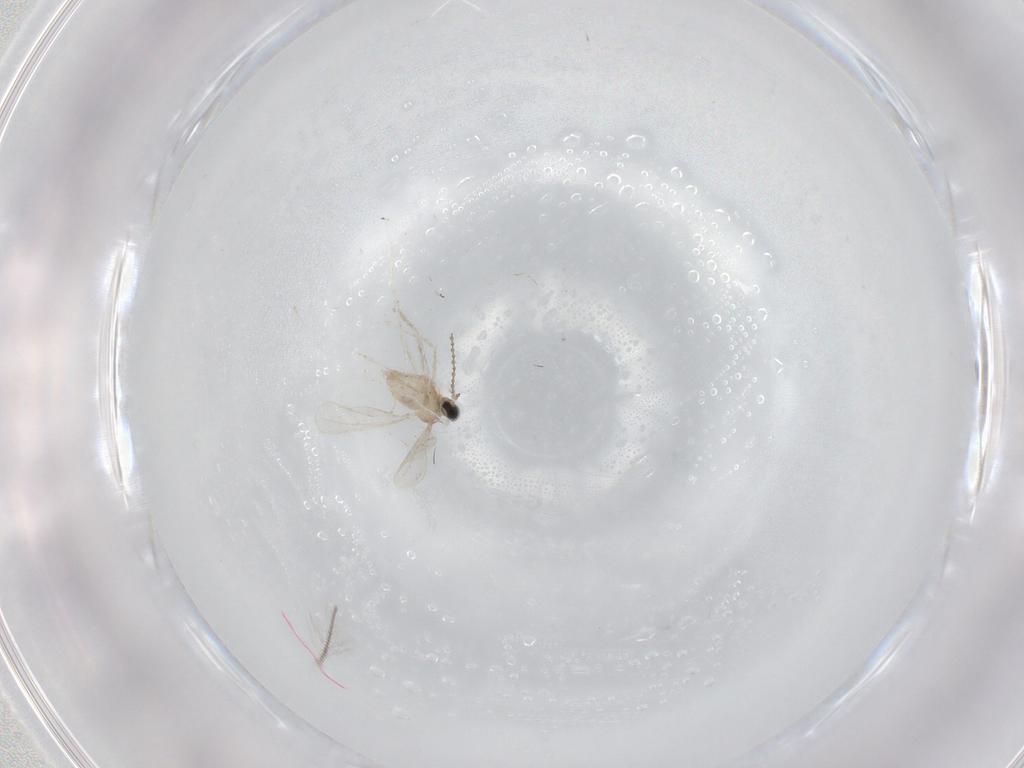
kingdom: Animalia
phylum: Arthropoda
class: Insecta
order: Diptera
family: Cecidomyiidae
